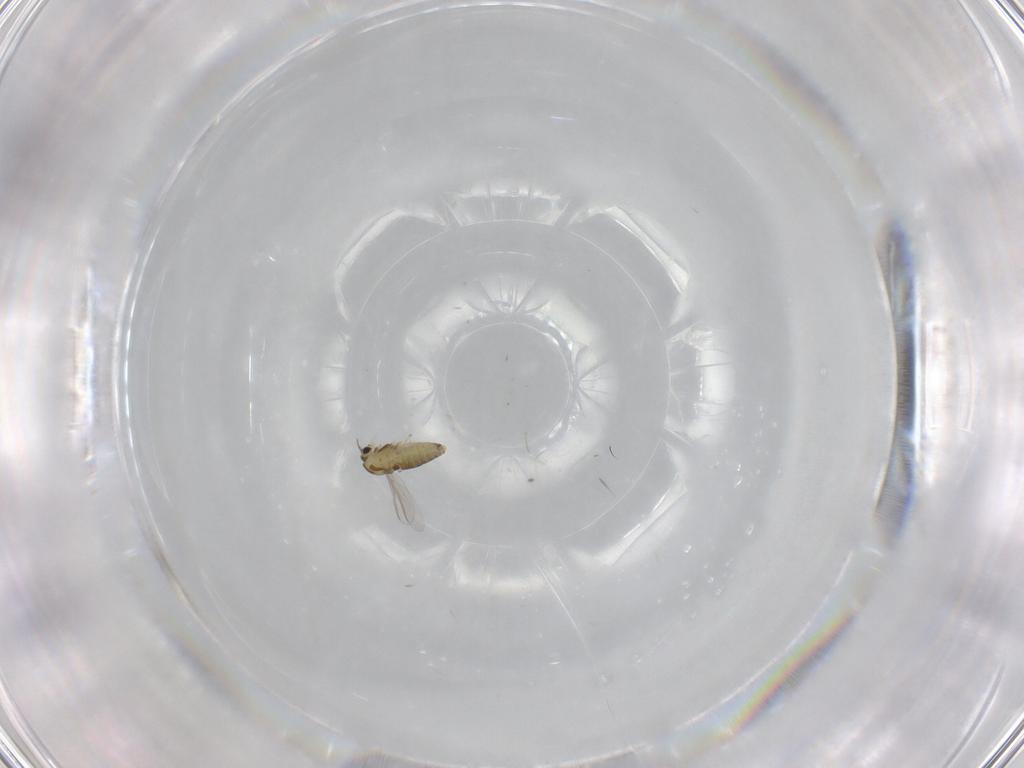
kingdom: Animalia
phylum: Arthropoda
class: Insecta
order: Diptera
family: Chironomidae
